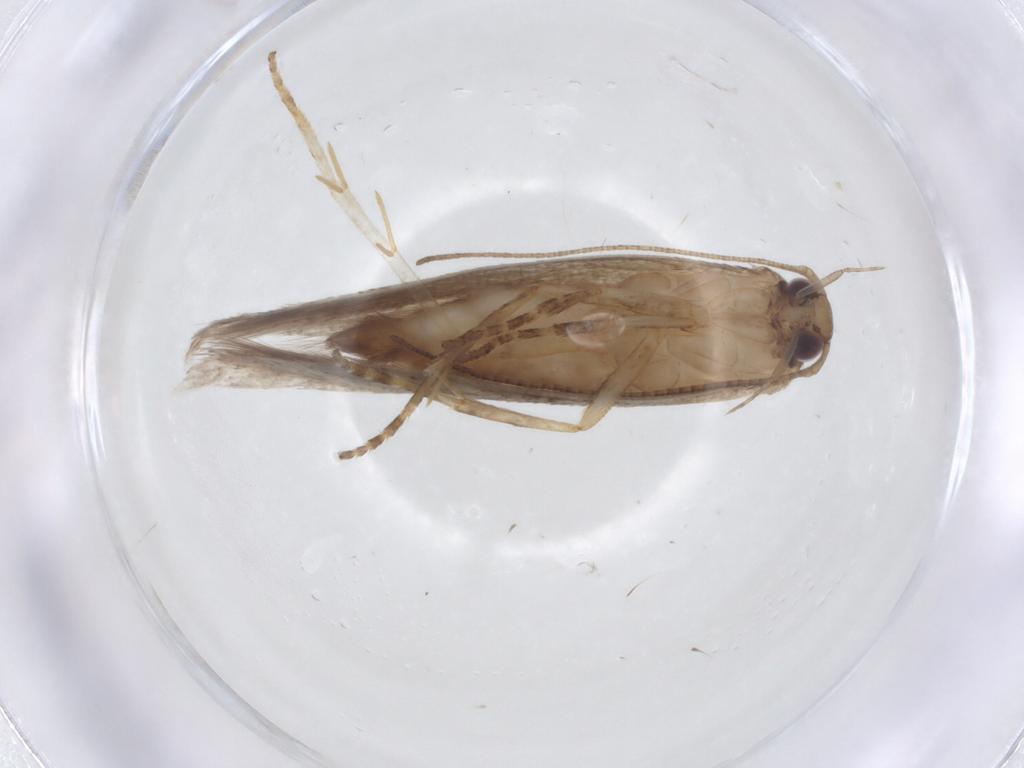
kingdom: Animalia
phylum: Arthropoda
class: Insecta
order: Lepidoptera
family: Gelechiidae
